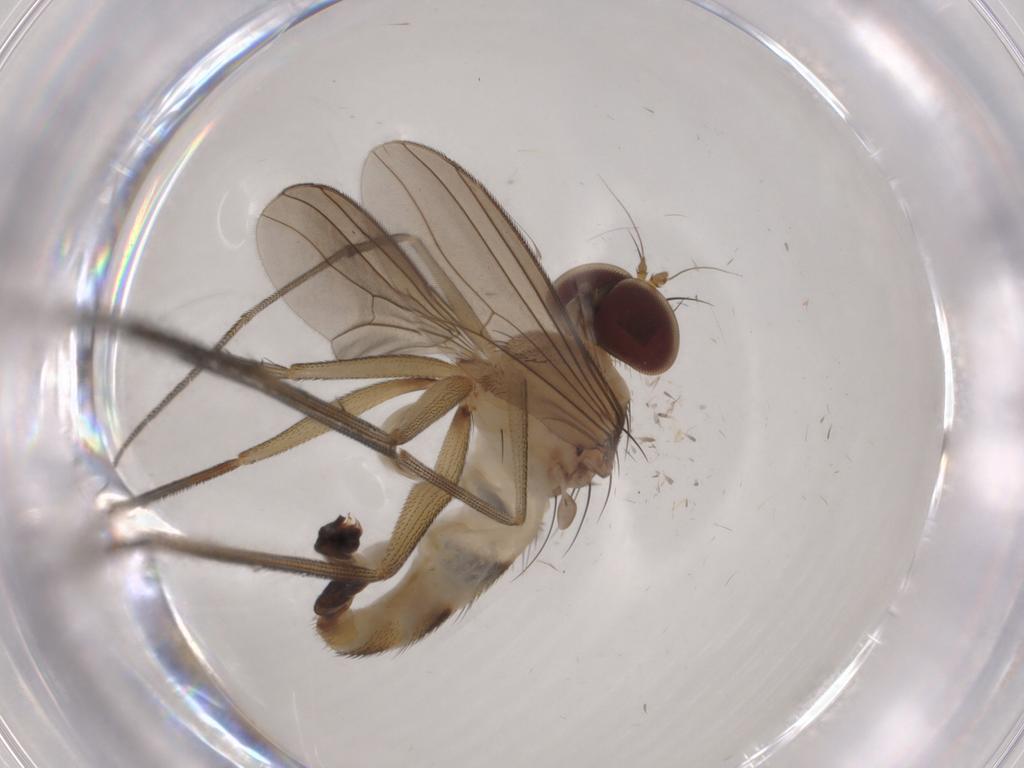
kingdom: Animalia
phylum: Arthropoda
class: Insecta
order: Diptera
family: Dolichopodidae
